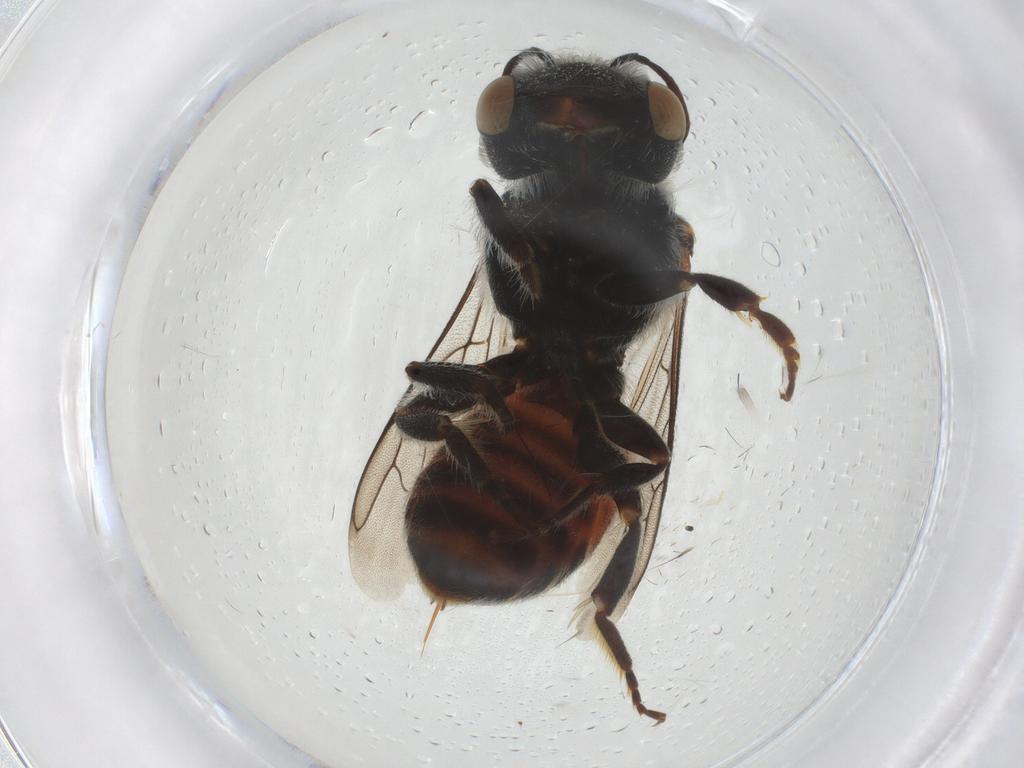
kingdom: Animalia
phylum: Arthropoda
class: Insecta
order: Hymenoptera
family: Megachilidae
